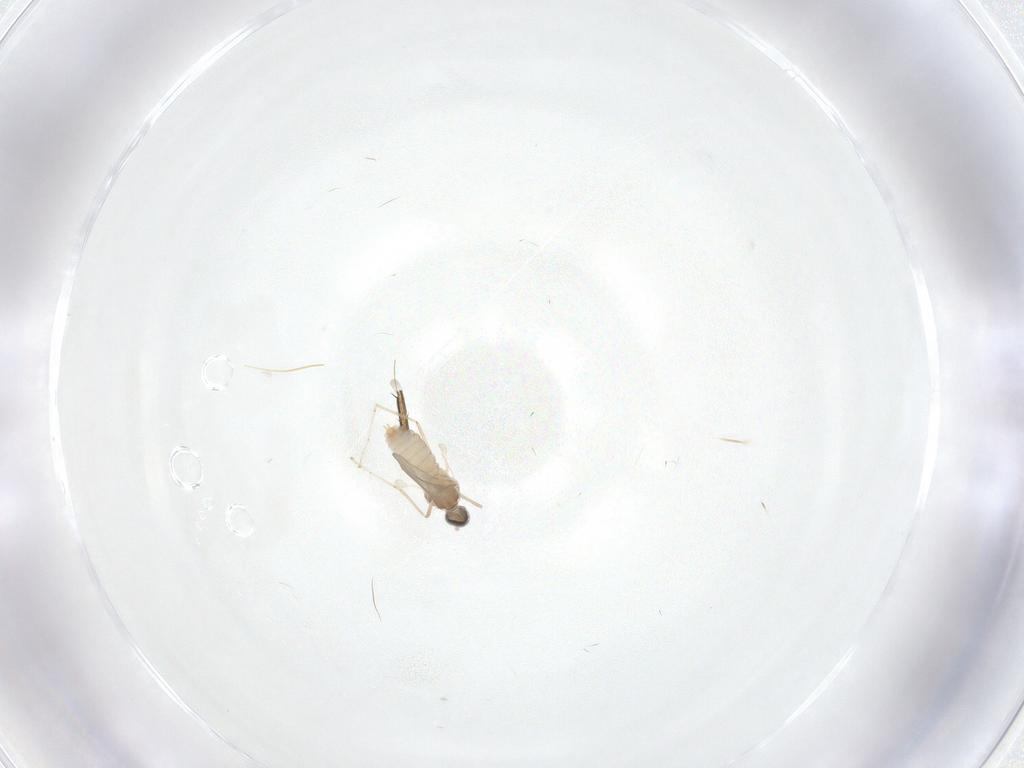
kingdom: Animalia
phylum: Arthropoda
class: Insecta
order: Diptera
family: Cecidomyiidae
